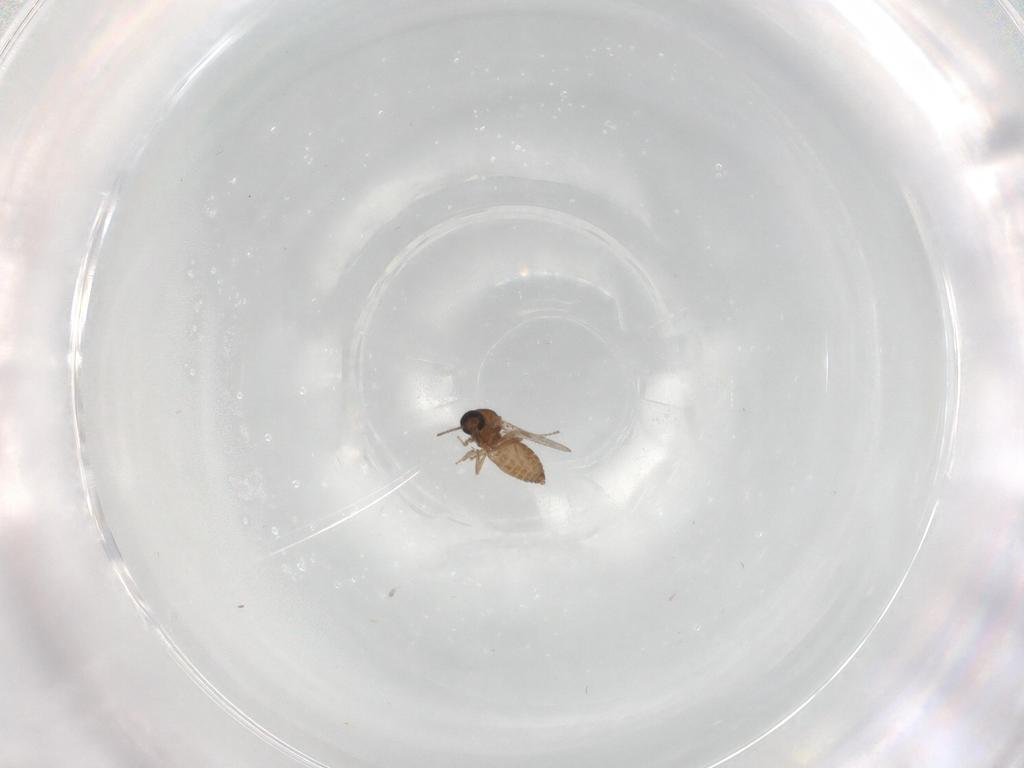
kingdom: Animalia
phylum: Arthropoda
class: Insecta
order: Diptera
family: Ceratopogonidae
